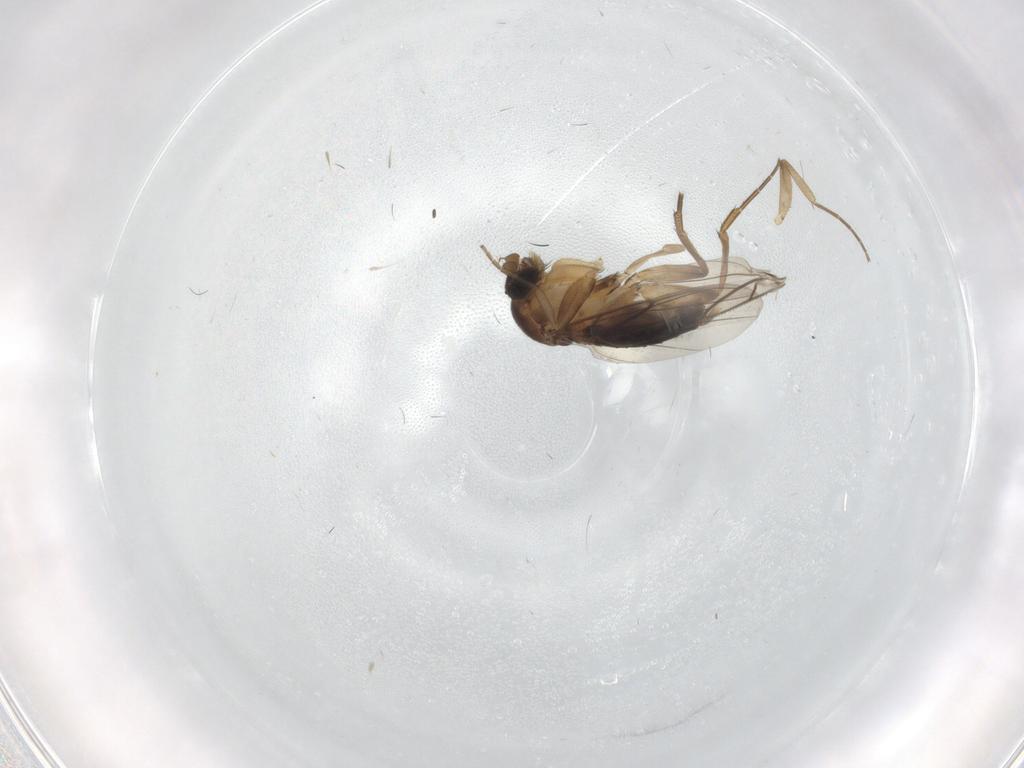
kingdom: Animalia
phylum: Arthropoda
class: Insecta
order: Diptera
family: Phoridae
